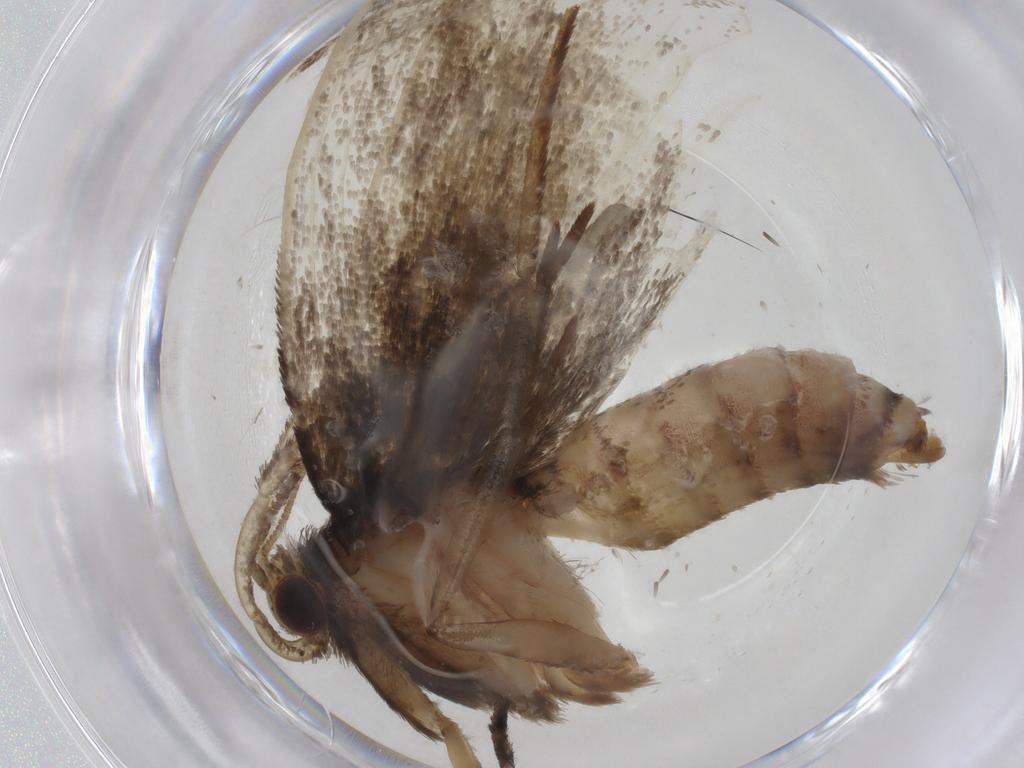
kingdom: Animalia
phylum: Arthropoda
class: Insecta
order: Lepidoptera
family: Tineidae
